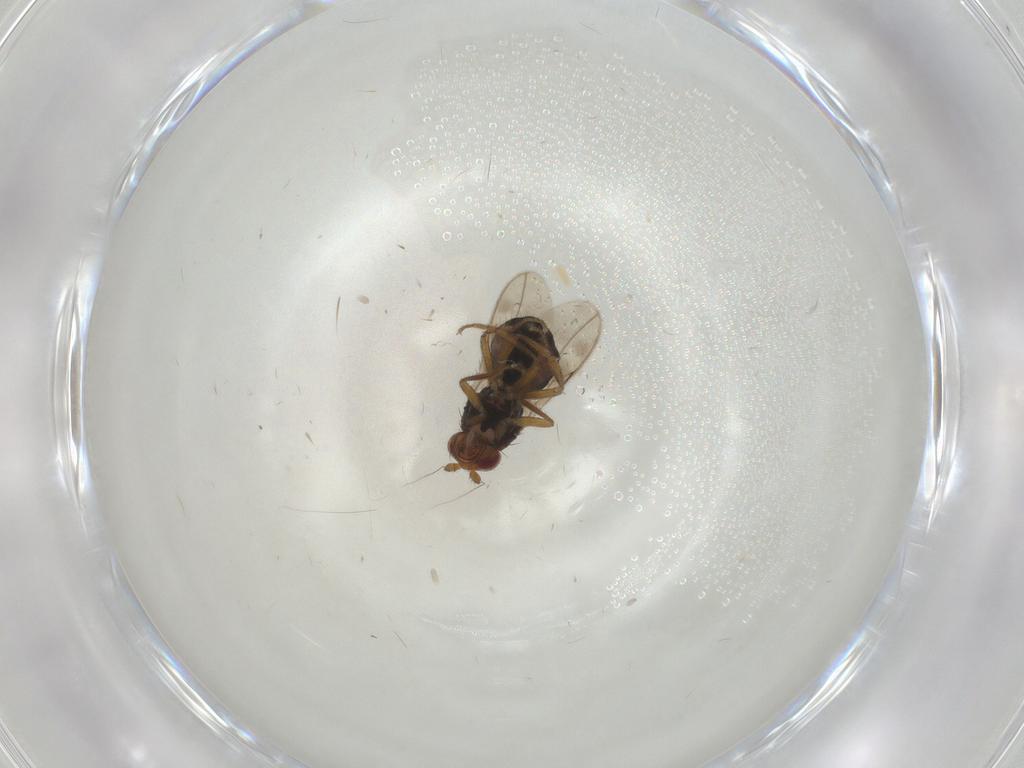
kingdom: Animalia
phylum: Arthropoda
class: Insecta
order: Diptera
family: Sphaeroceridae
